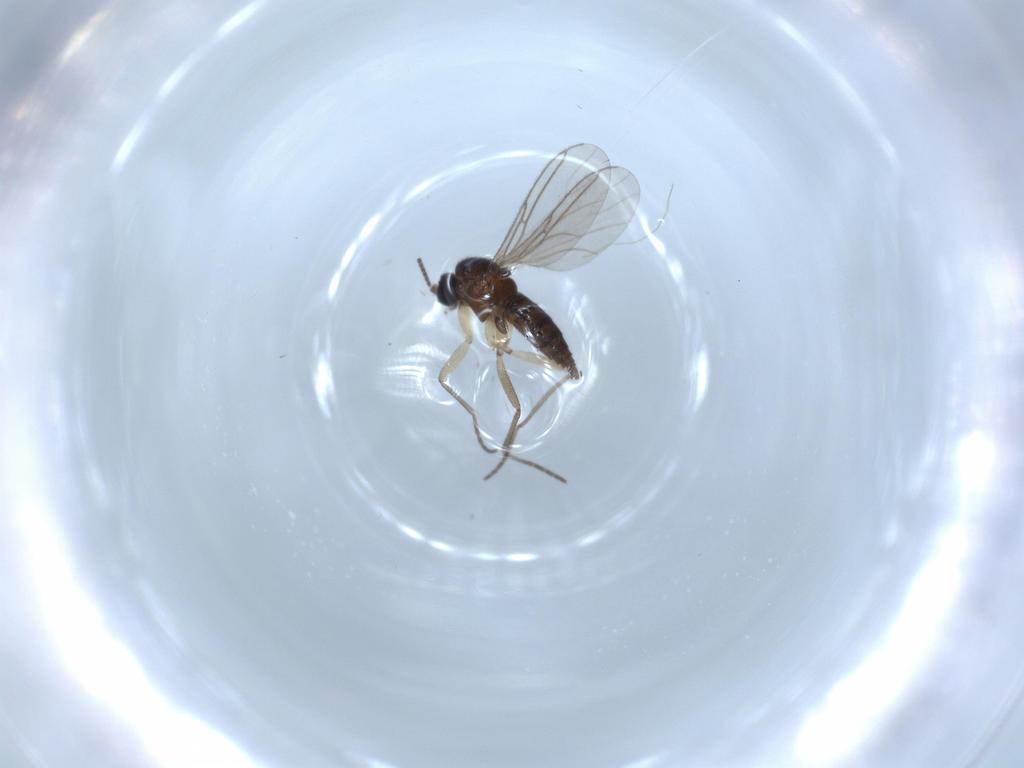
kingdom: Animalia
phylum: Arthropoda
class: Insecta
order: Diptera
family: Sciaridae
